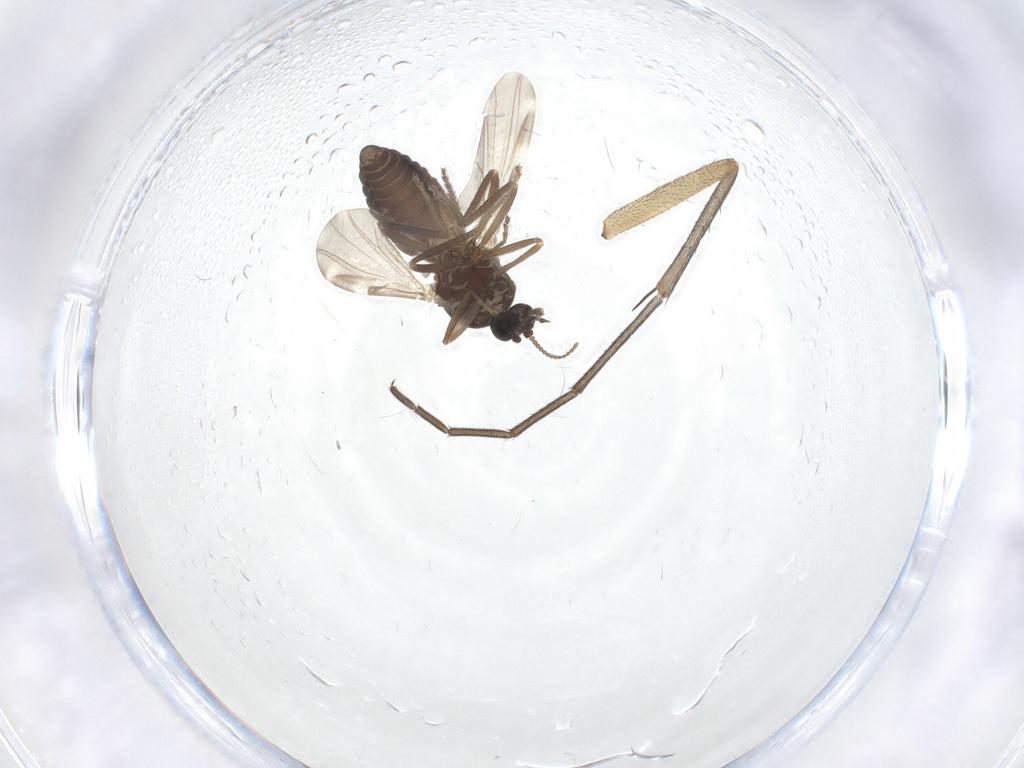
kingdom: Animalia
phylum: Arthropoda
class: Insecta
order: Diptera
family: Ceratopogonidae
